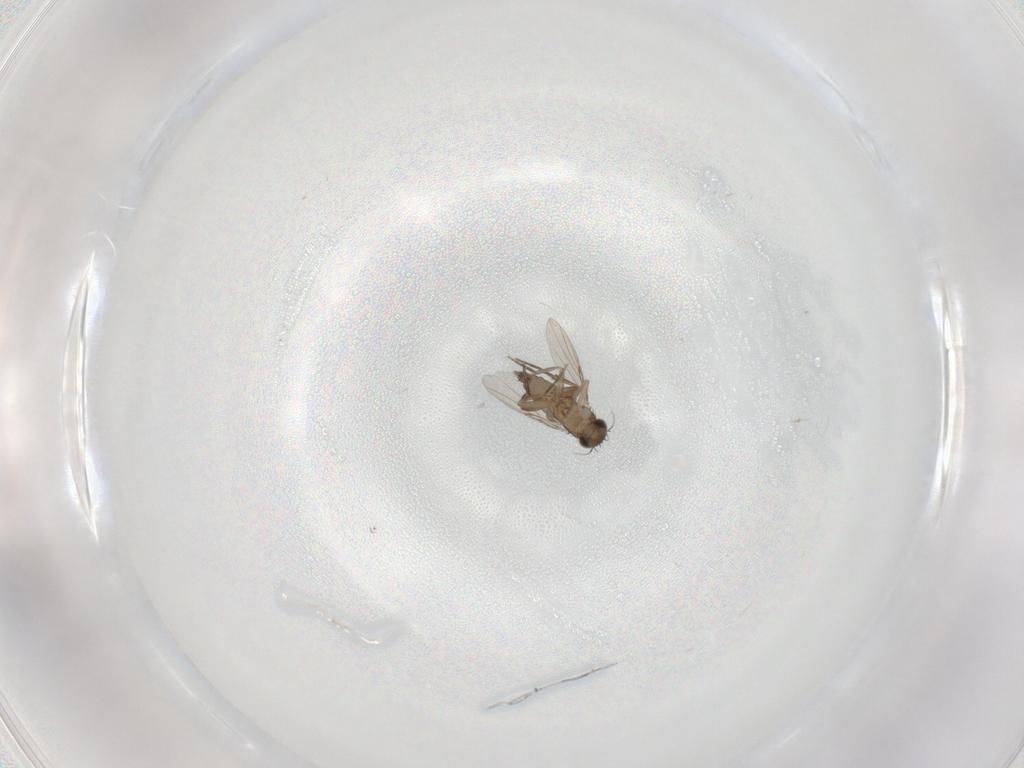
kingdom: Animalia
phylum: Arthropoda
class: Insecta
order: Diptera
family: Phoridae
